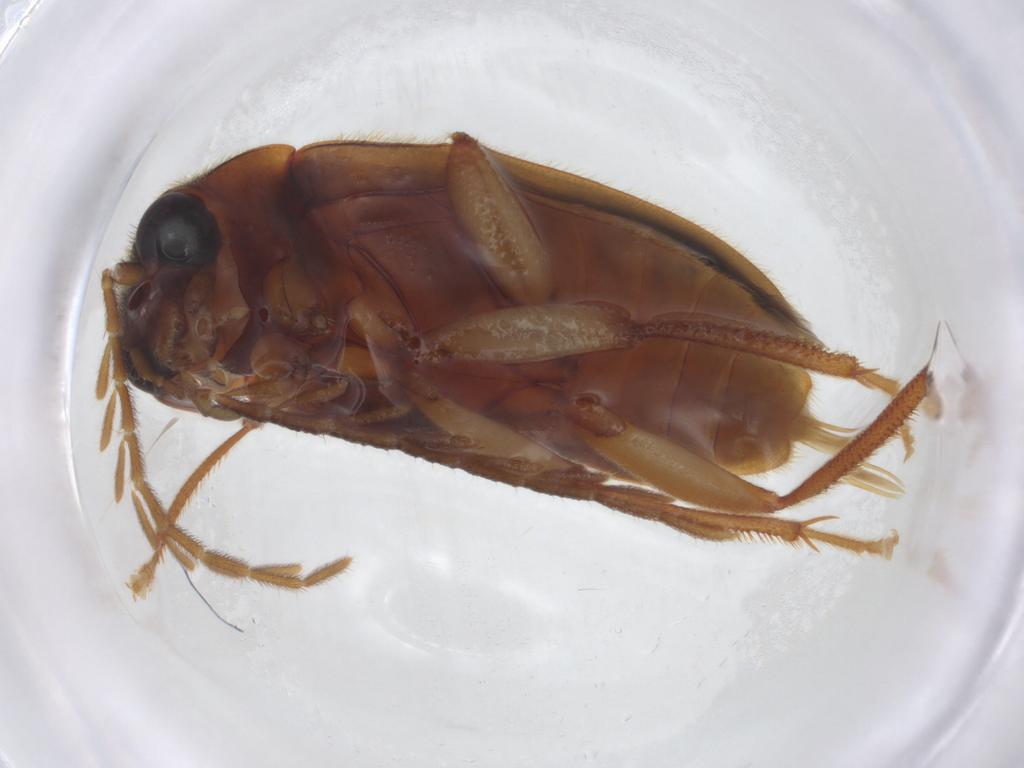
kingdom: Animalia
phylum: Arthropoda
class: Insecta
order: Coleoptera
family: Ptilodactylidae
